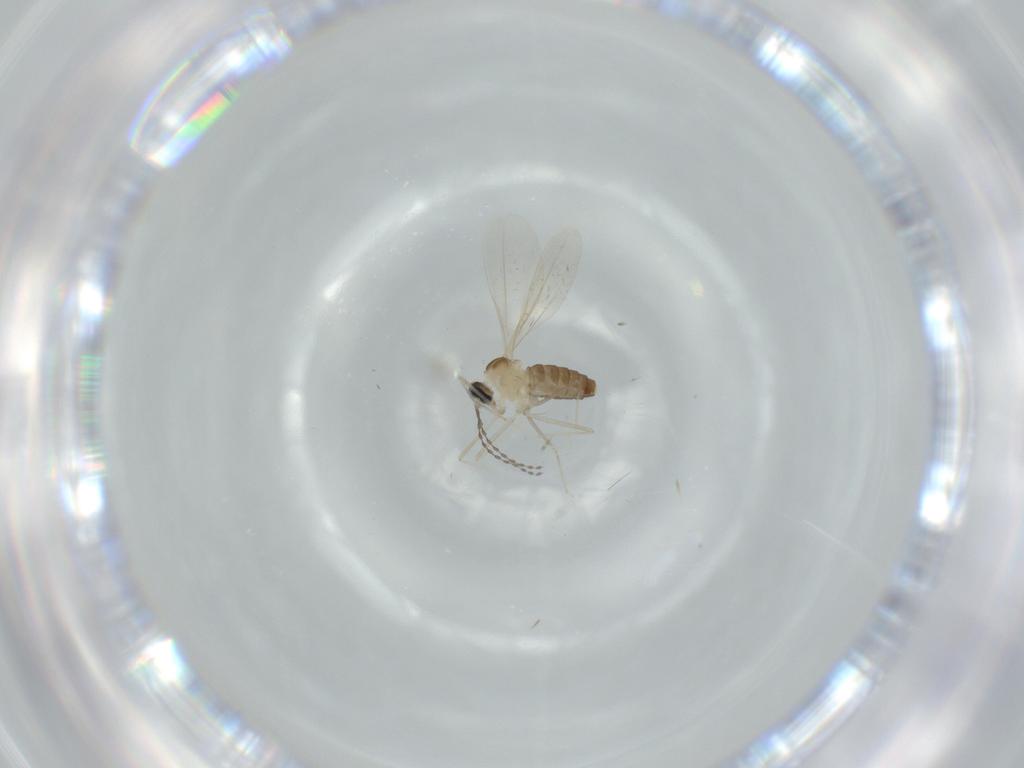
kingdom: Animalia
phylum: Arthropoda
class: Insecta
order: Diptera
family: Cecidomyiidae
